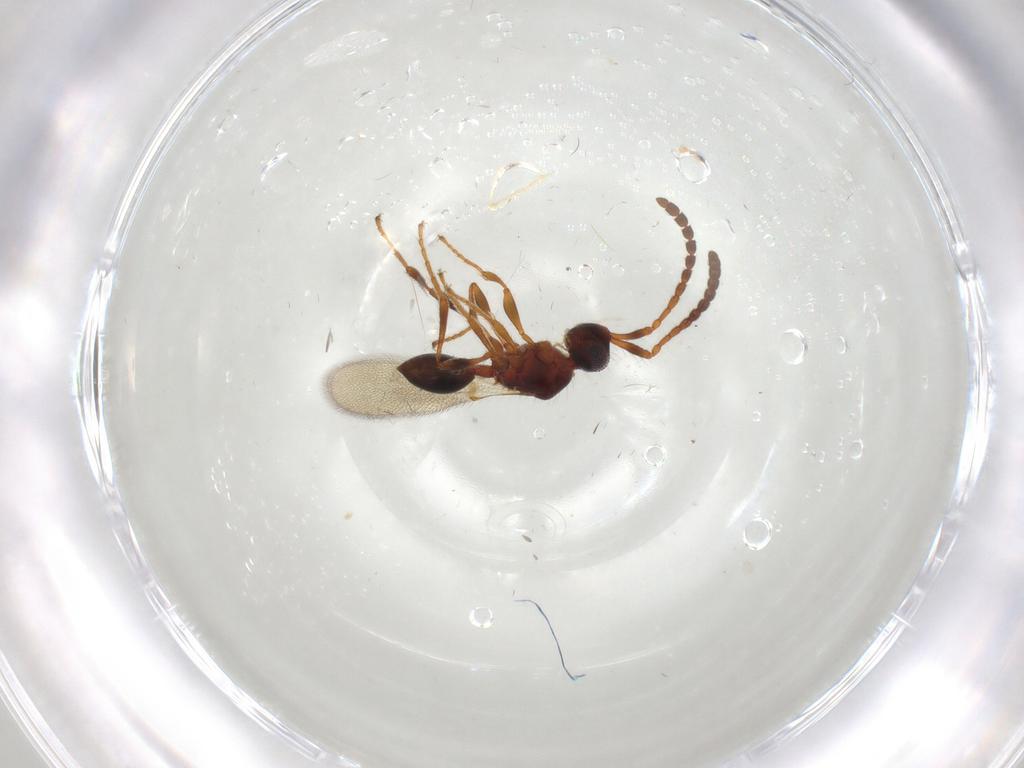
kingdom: Animalia
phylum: Arthropoda
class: Insecta
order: Hymenoptera
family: Diapriidae
